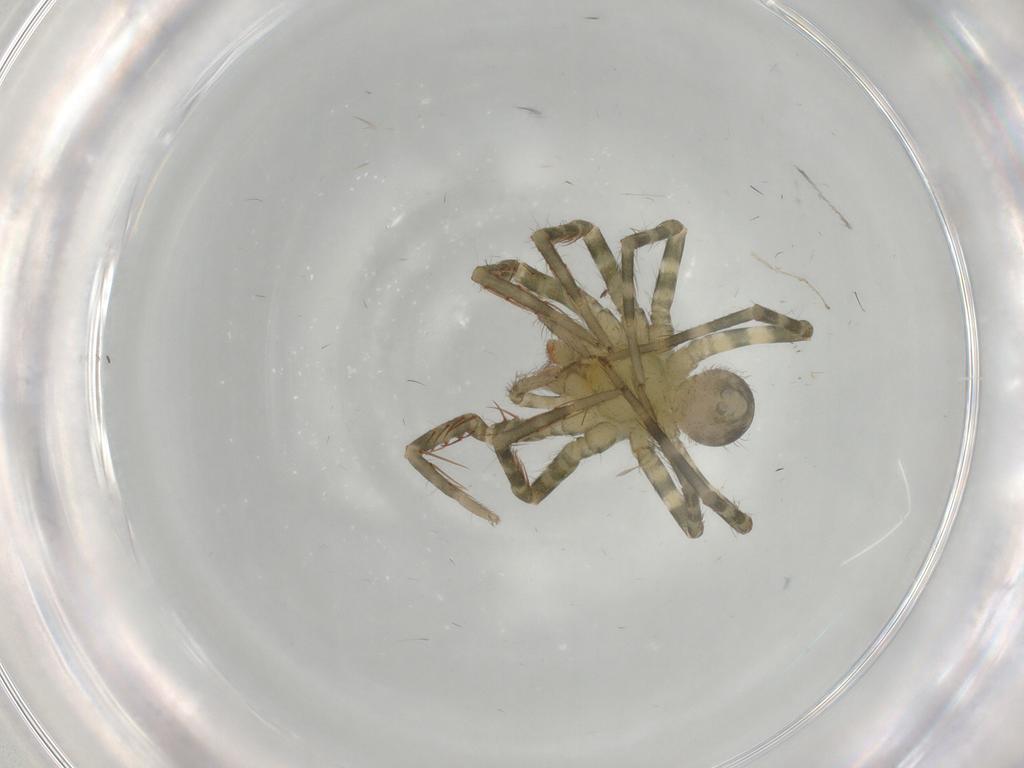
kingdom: Animalia
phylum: Arthropoda
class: Arachnida
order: Araneae
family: Ctenidae
